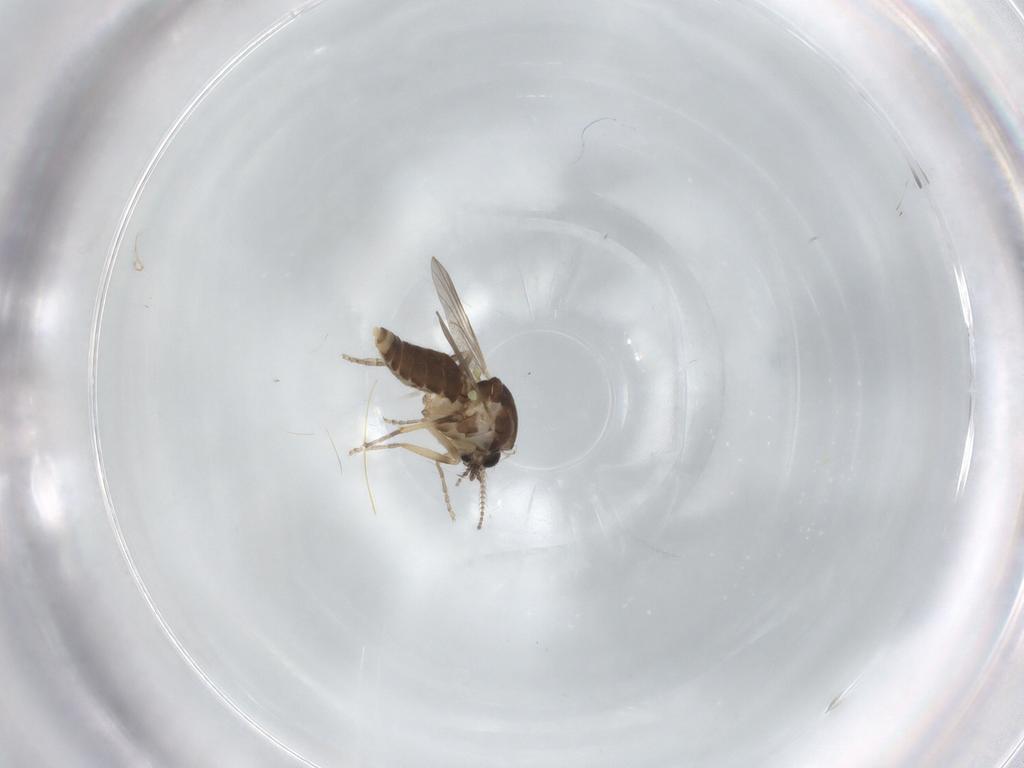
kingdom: Animalia
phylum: Arthropoda
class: Insecta
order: Diptera
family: Ceratopogonidae
